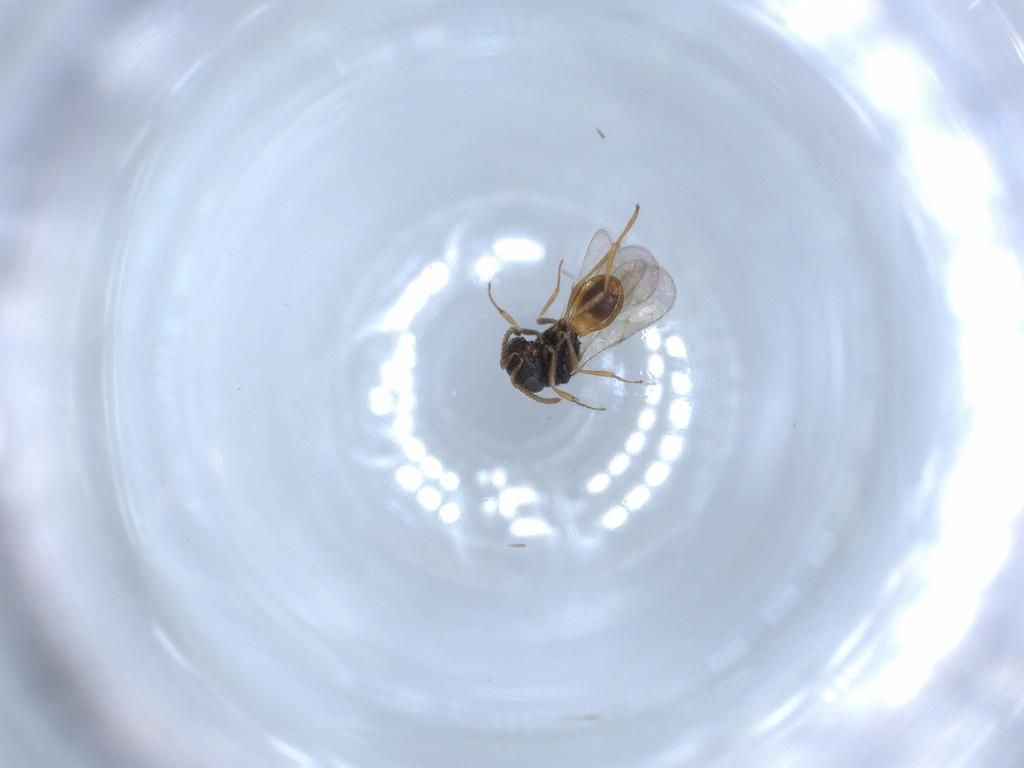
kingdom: Animalia
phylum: Arthropoda
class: Insecta
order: Hymenoptera
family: Scelionidae
